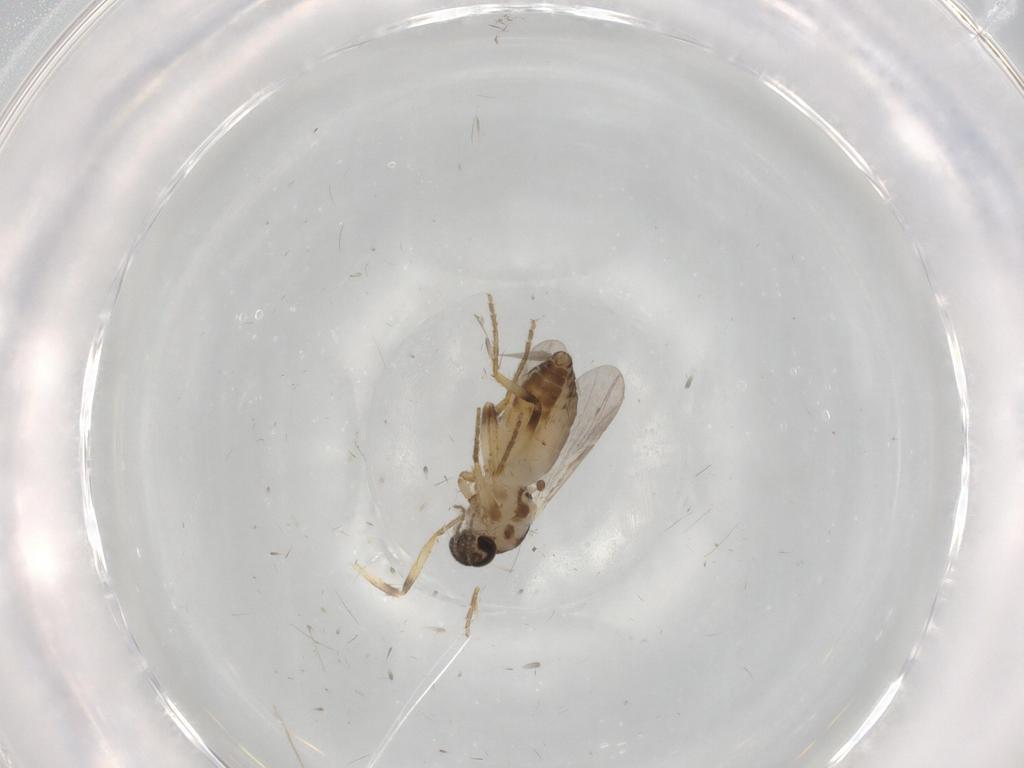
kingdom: Animalia
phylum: Arthropoda
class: Insecta
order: Diptera
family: Ceratopogonidae
